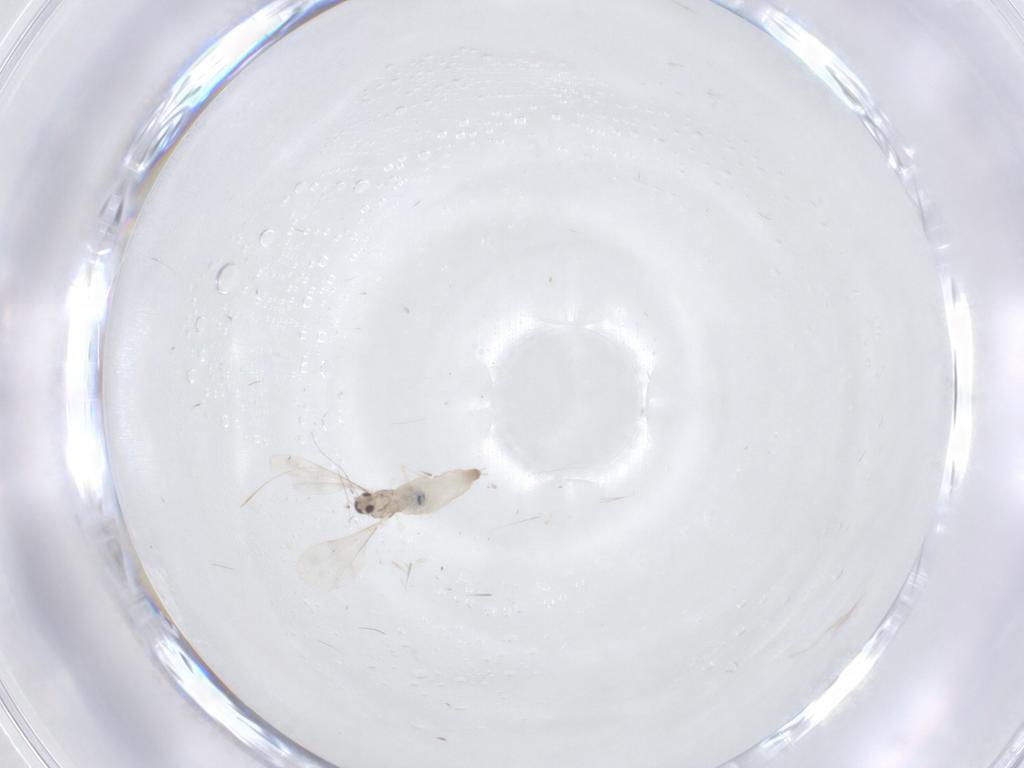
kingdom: Animalia
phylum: Arthropoda
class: Insecta
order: Diptera
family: Cecidomyiidae
